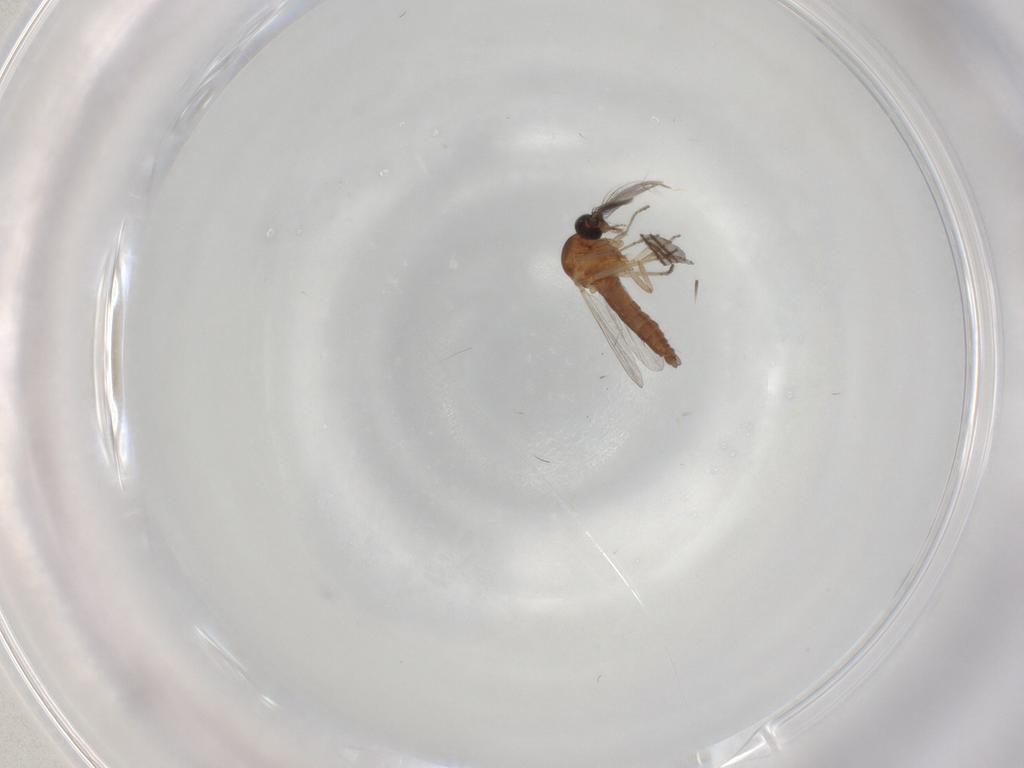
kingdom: Animalia
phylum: Arthropoda
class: Insecta
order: Diptera
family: Ceratopogonidae
